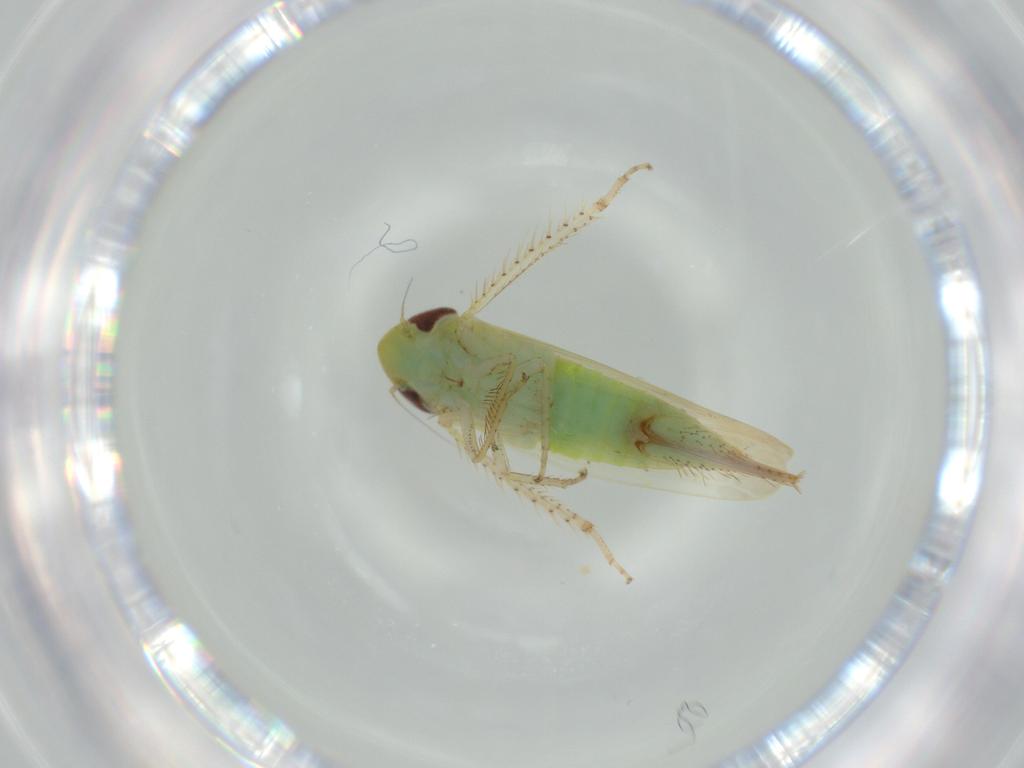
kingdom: Animalia
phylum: Arthropoda
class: Insecta
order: Hemiptera
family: Cicadellidae
